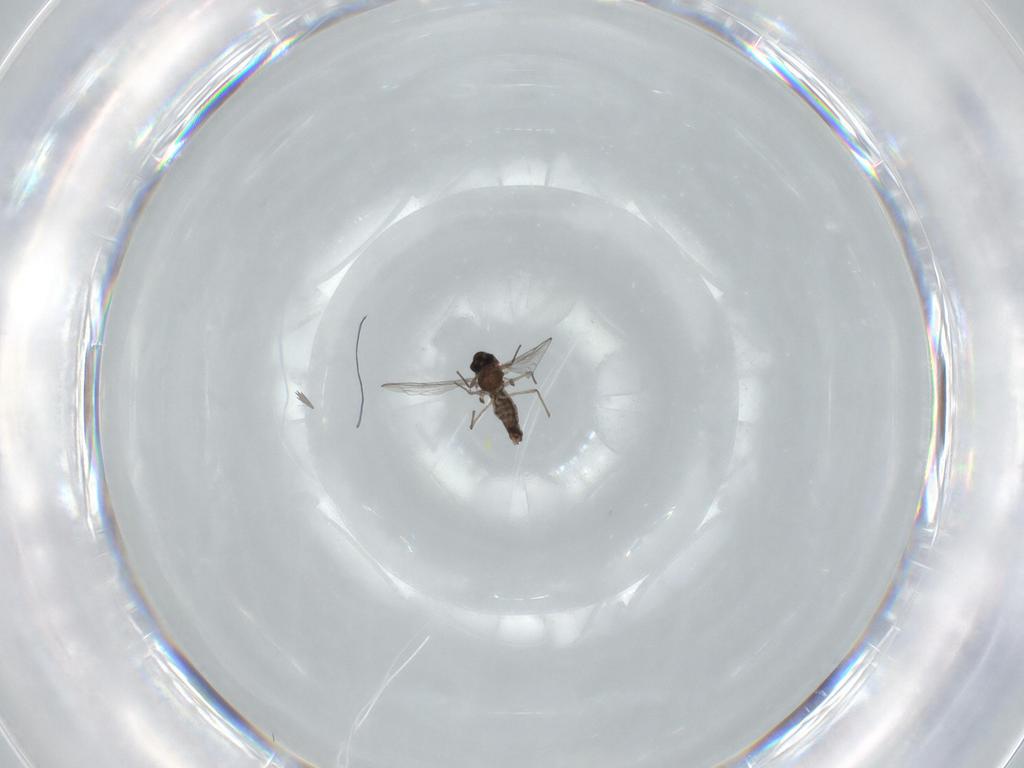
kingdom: Animalia
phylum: Arthropoda
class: Insecta
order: Diptera
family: Chironomidae
